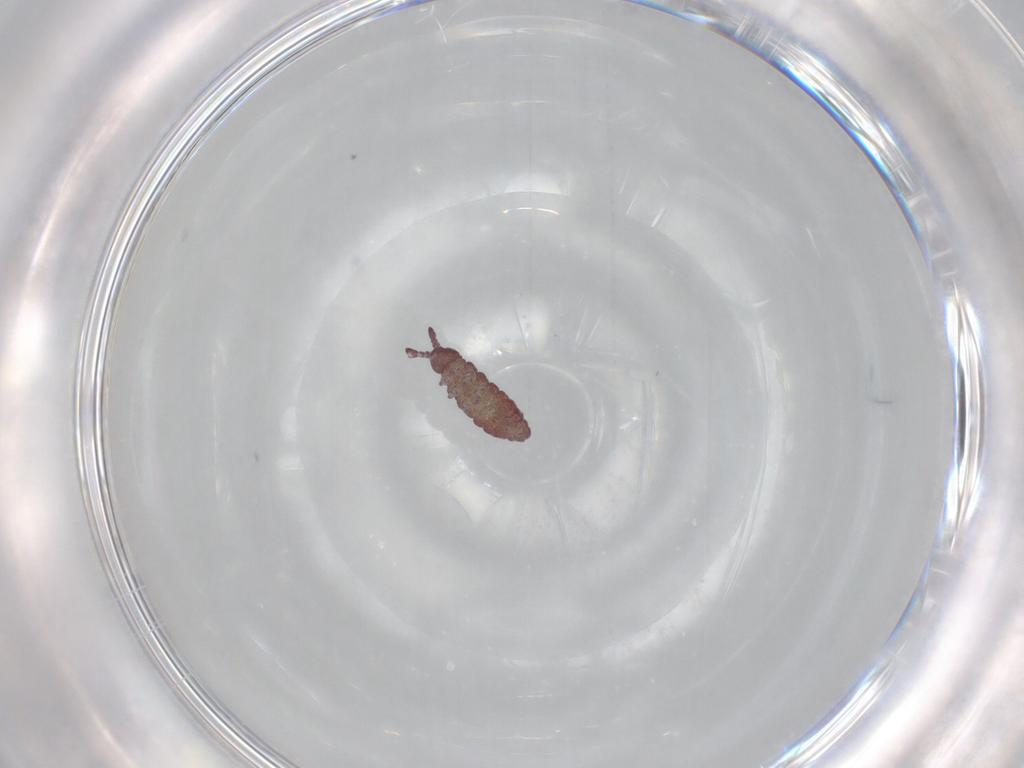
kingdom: Animalia
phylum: Arthropoda
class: Collembola
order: Poduromorpha
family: Hypogastruridae
